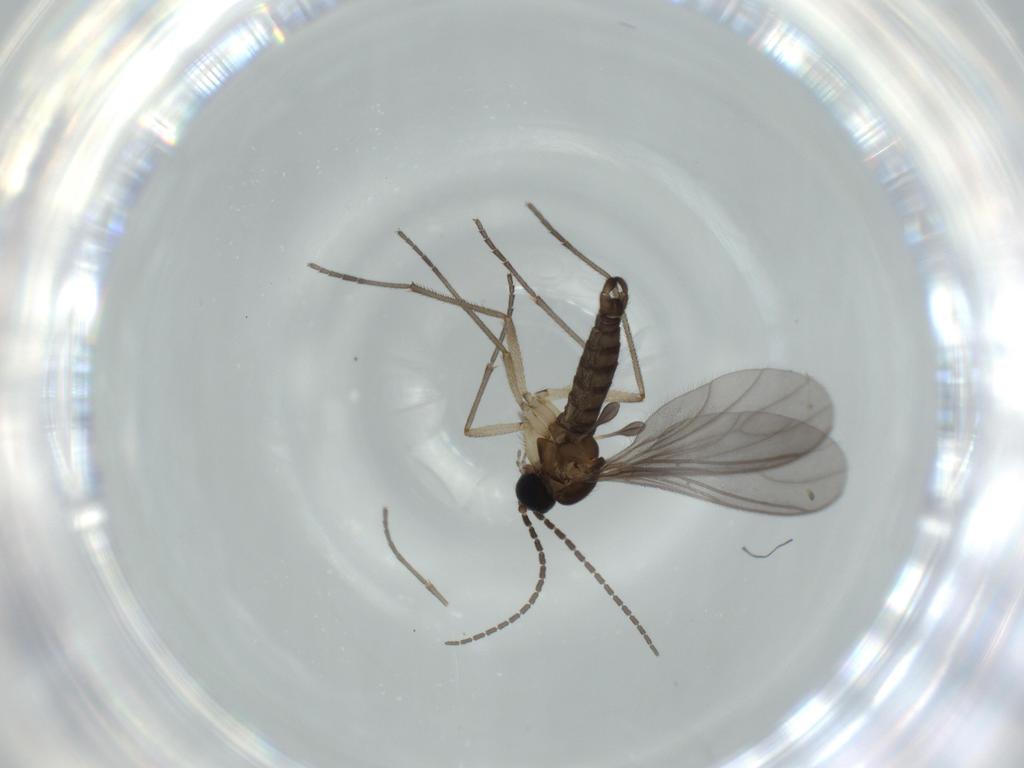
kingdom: Animalia
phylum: Arthropoda
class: Insecta
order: Diptera
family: Sciaridae
